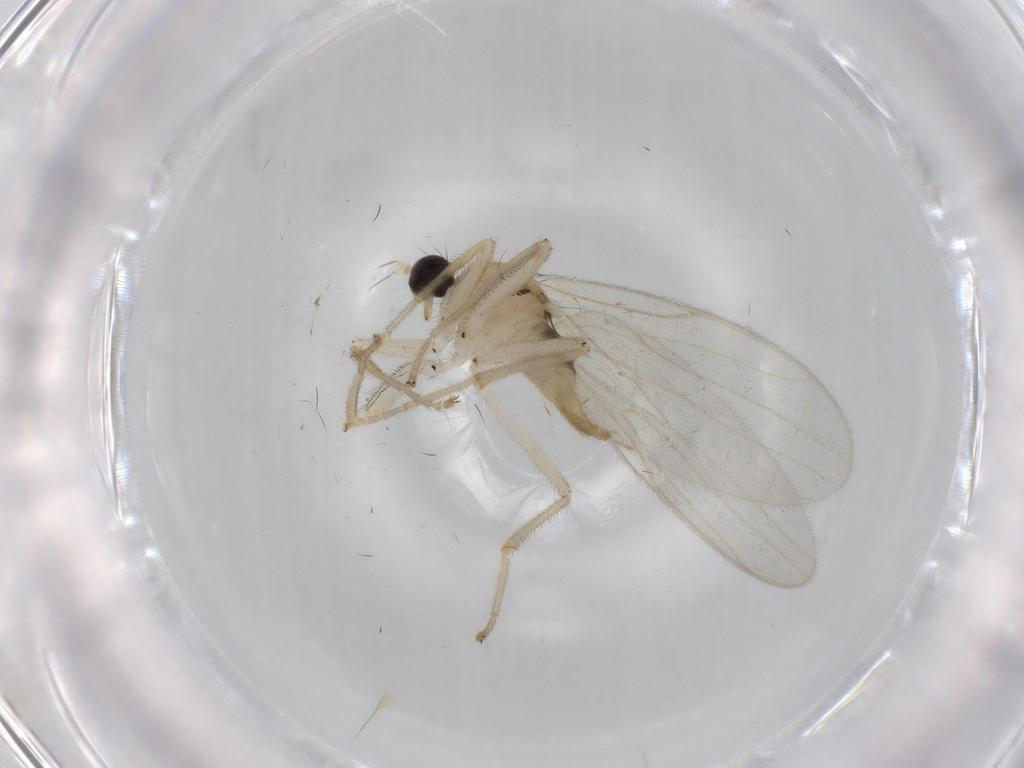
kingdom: Animalia
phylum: Arthropoda
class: Insecta
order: Diptera
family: Hybotidae
